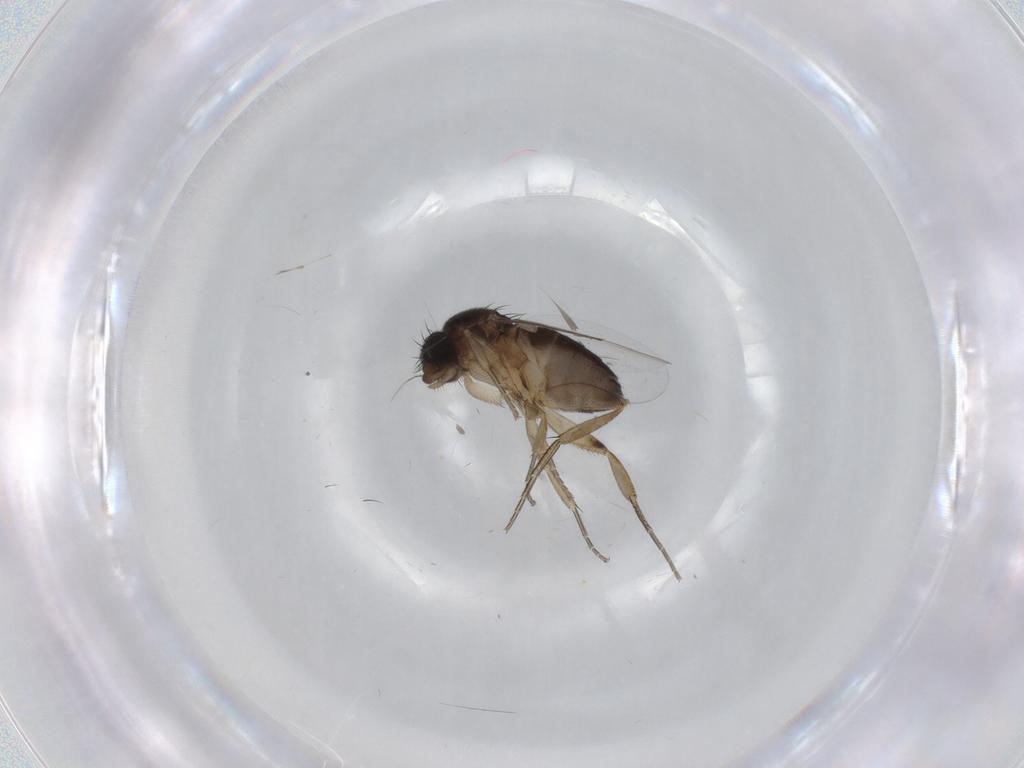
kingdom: Animalia
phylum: Arthropoda
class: Insecta
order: Diptera
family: Phoridae
